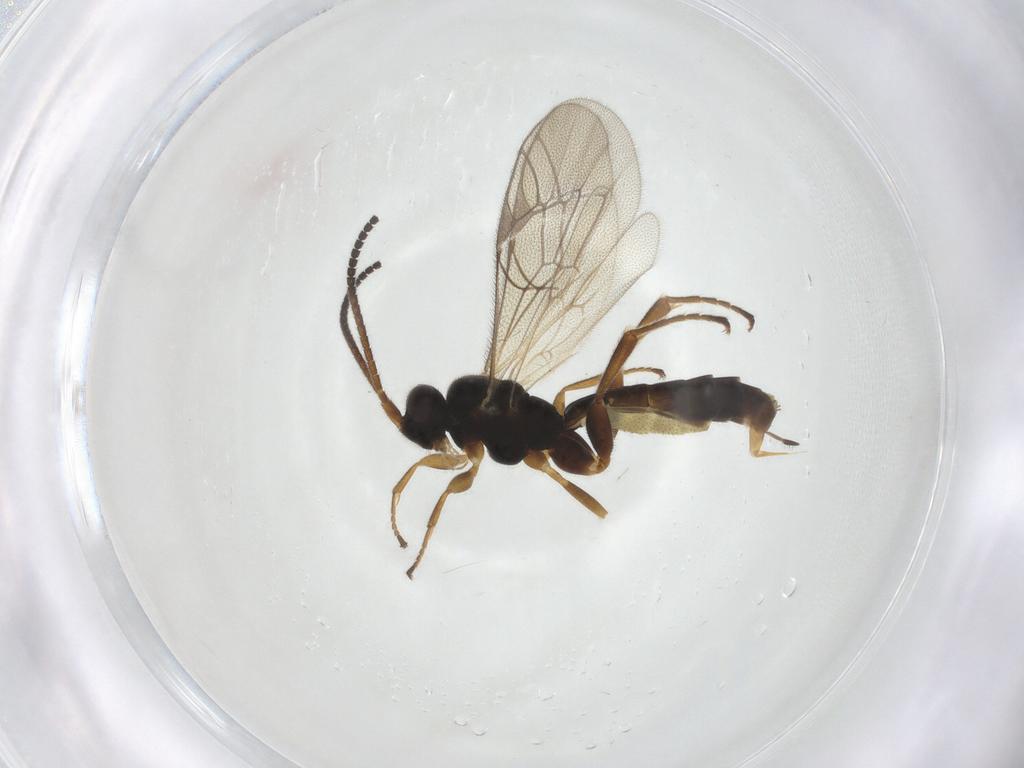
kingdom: Animalia
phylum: Arthropoda
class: Insecta
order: Hymenoptera
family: Ichneumonidae
